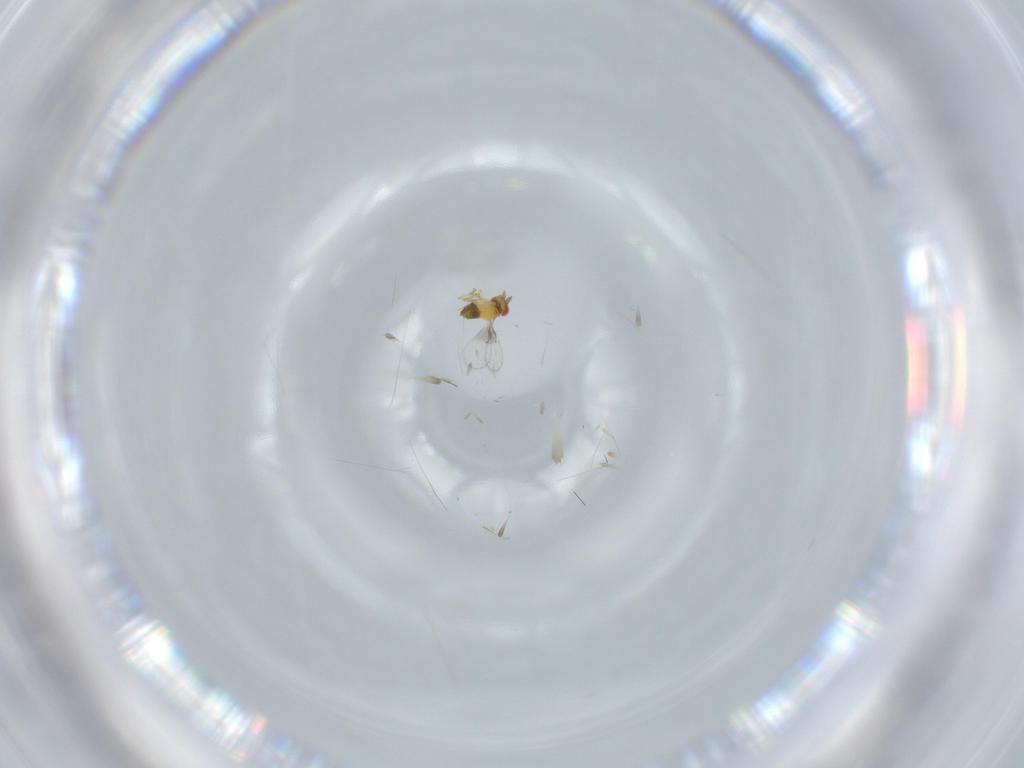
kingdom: Animalia
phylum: Arthropoda
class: Insecta
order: Hymenoptera
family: Trichogrammatidae
